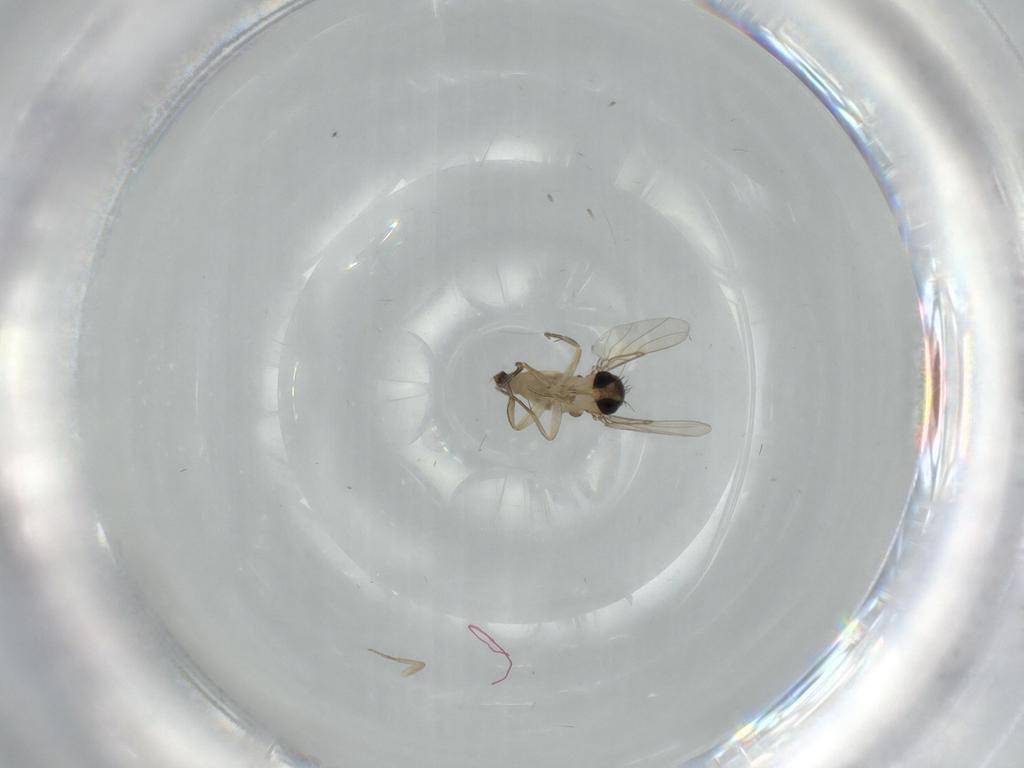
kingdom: Animalia
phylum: Arthropoda
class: Insecta
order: Diptera
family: Phoridae
